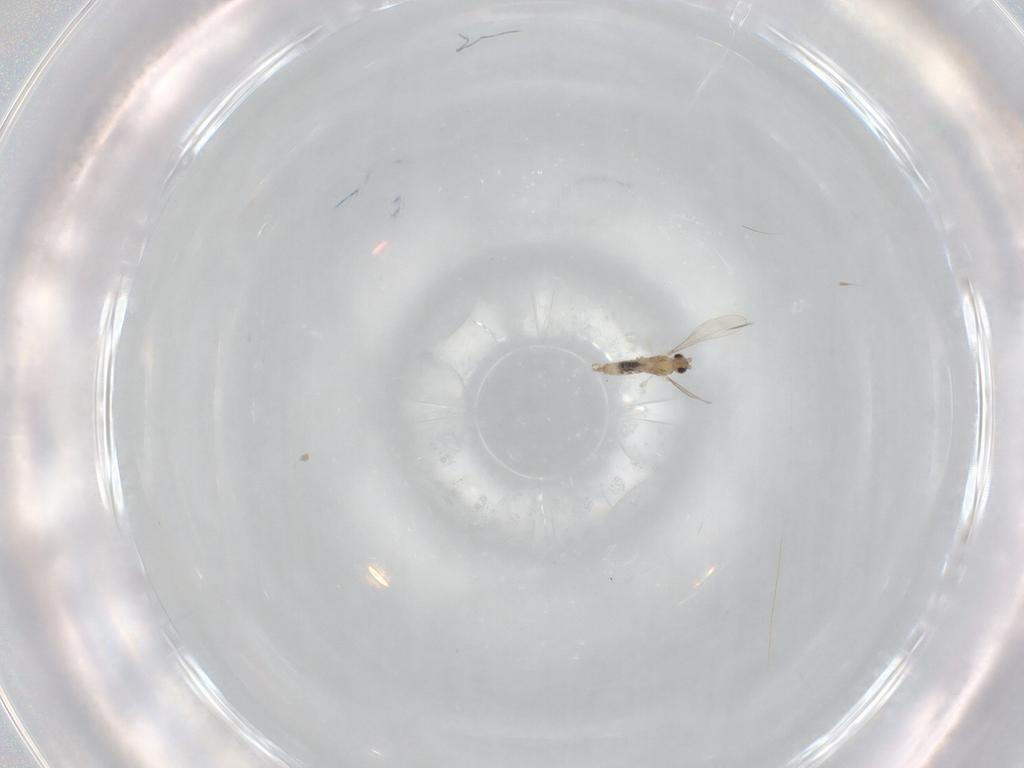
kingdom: Animalia
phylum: Arthropoda
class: Insecta
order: Diptera
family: Cecidomyiidae
